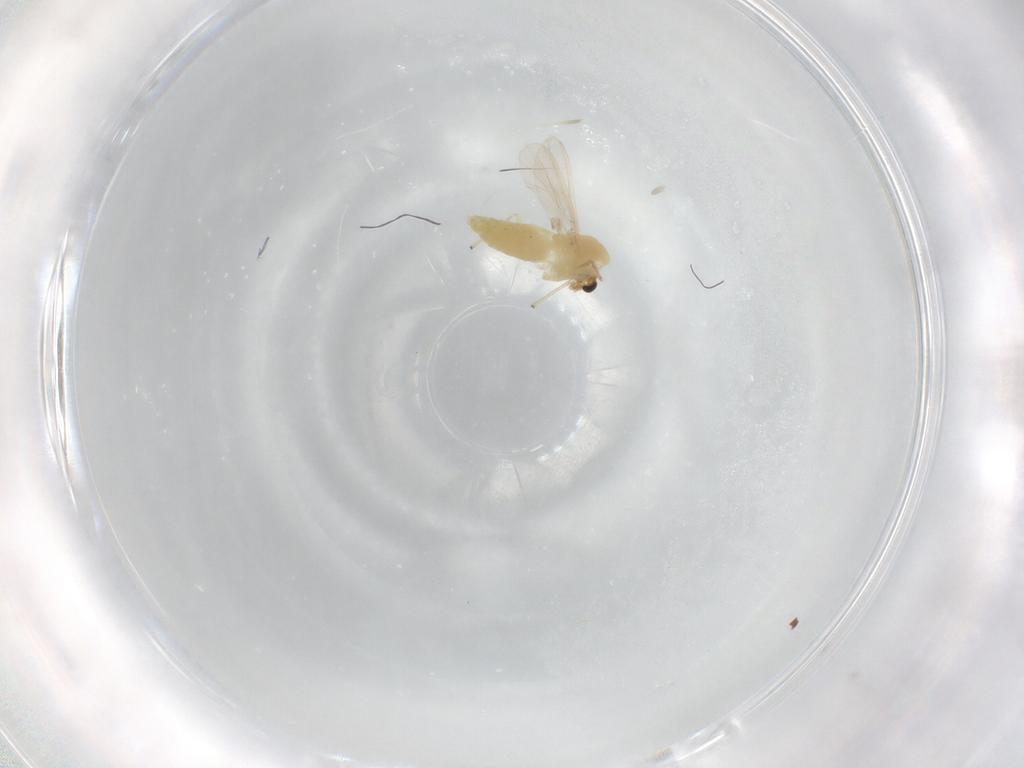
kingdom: Animalia
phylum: Arthropoda
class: Insecta
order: Diptera
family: Chironomidae
